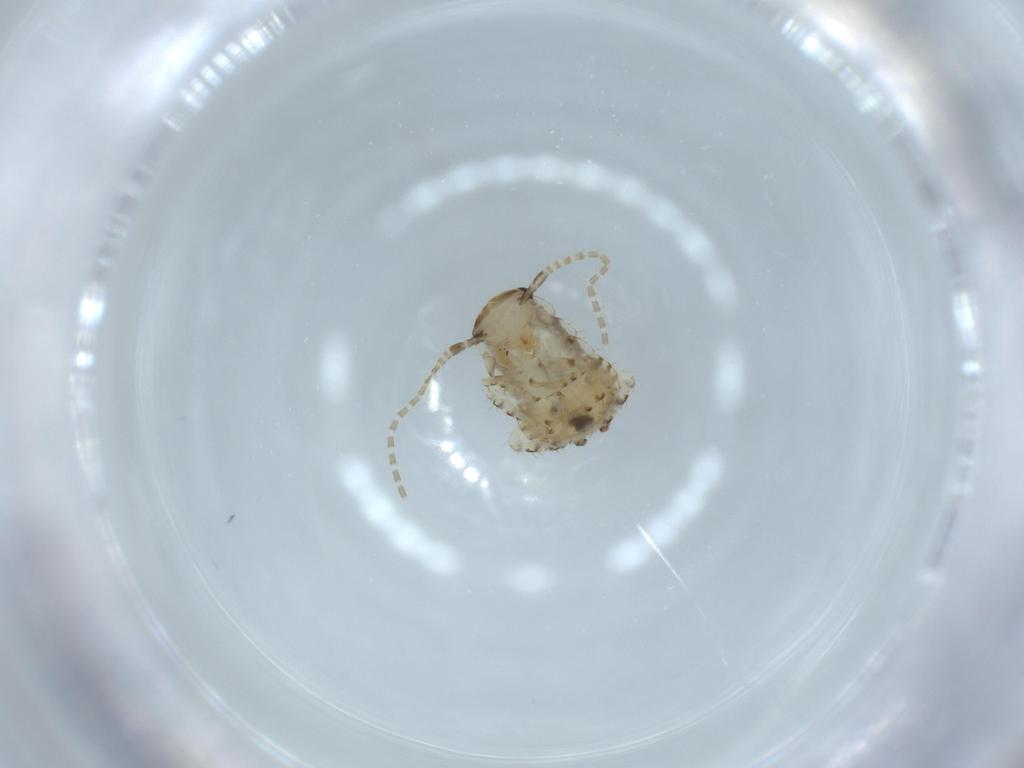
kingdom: Animalia
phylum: Arthropoda
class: Insecta
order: Blattodea
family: Ectobiidae
